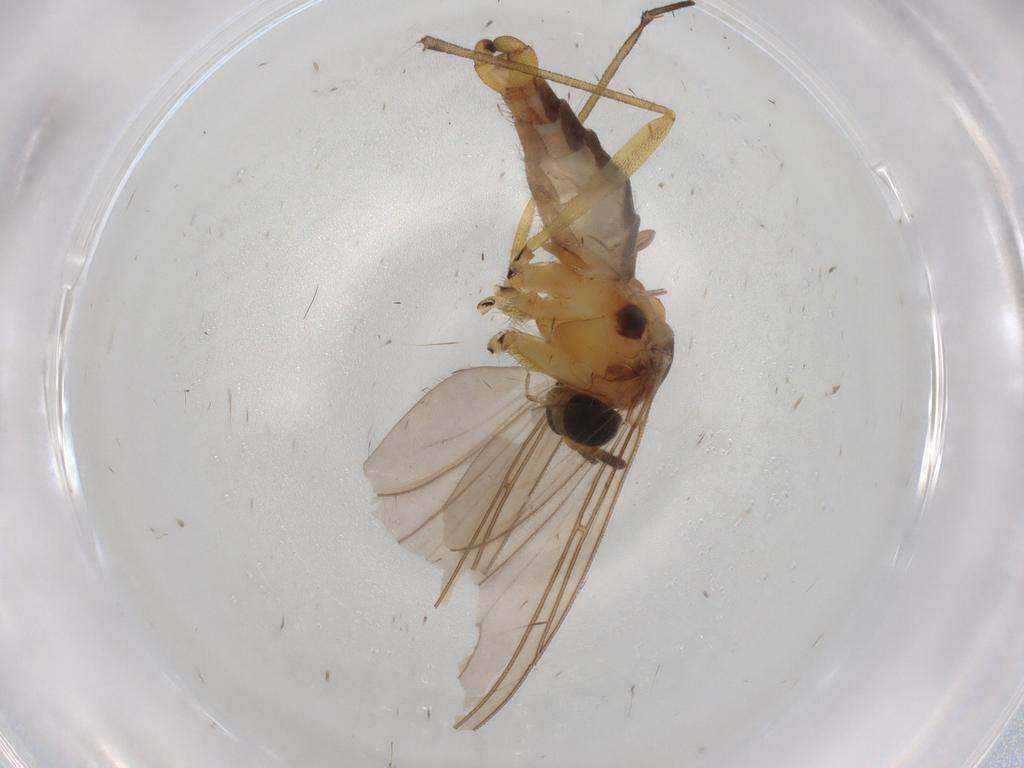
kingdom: Animalia
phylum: Arthropoda
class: Insecta
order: Diptera
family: Sciaridae
